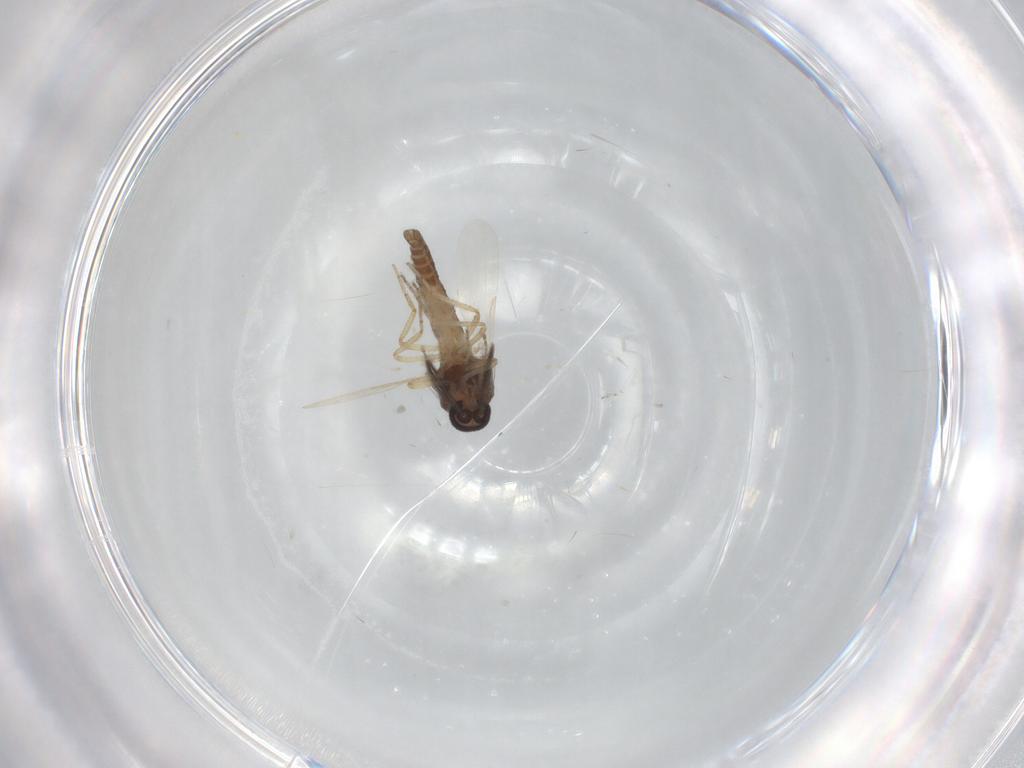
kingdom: Animalia
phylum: Arthropoda
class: Insecta
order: Diptera
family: Ceratopogonidae
